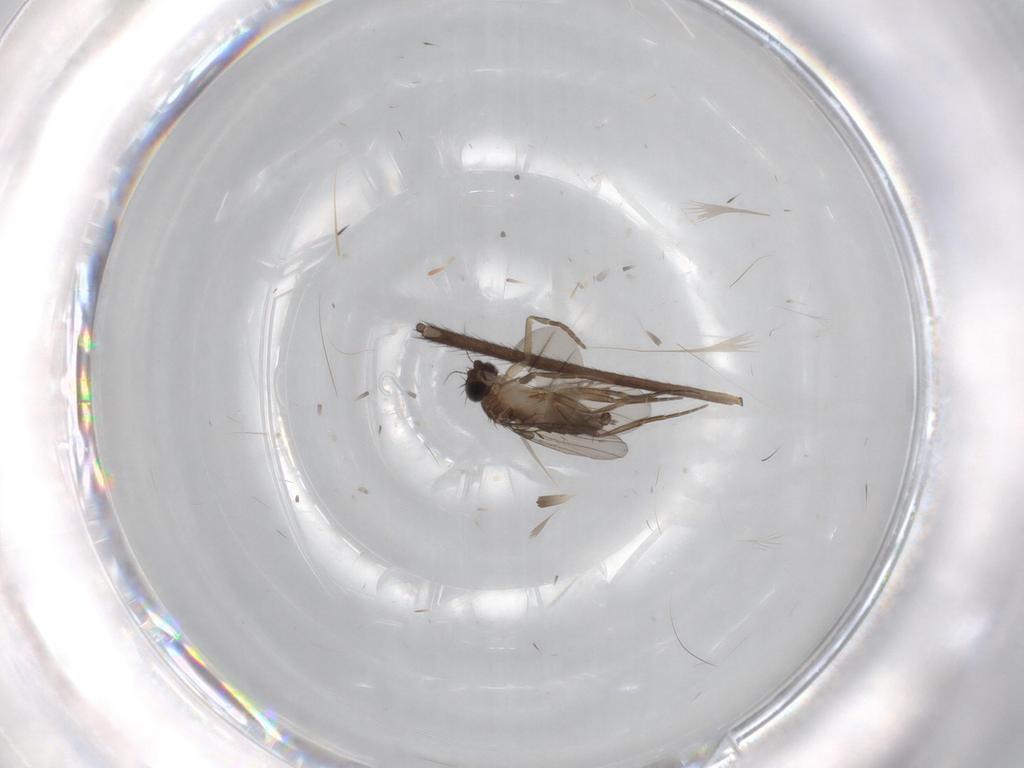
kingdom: Animalia
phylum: Arthropoda
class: Insecta
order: Diptera
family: Phoridae
